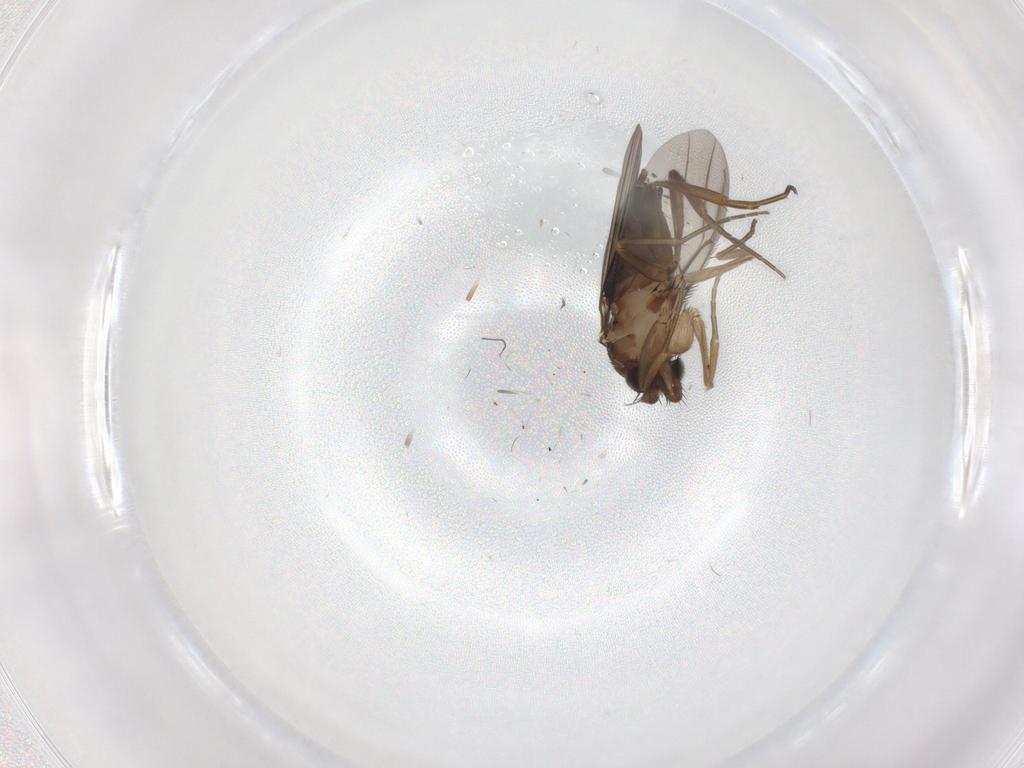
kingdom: Animalia
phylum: Arthropoda
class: Insecta
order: Diptera
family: Phoridae
